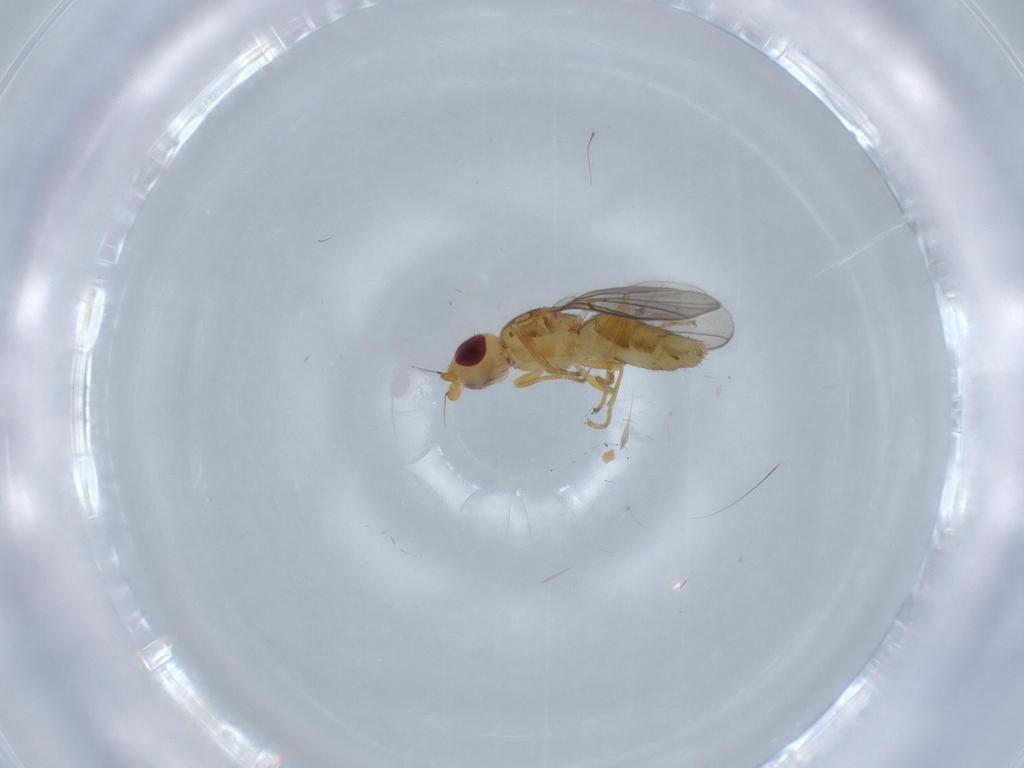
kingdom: Animalia
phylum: Arthropoda
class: Insecta
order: Diptera
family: Chloropidae
